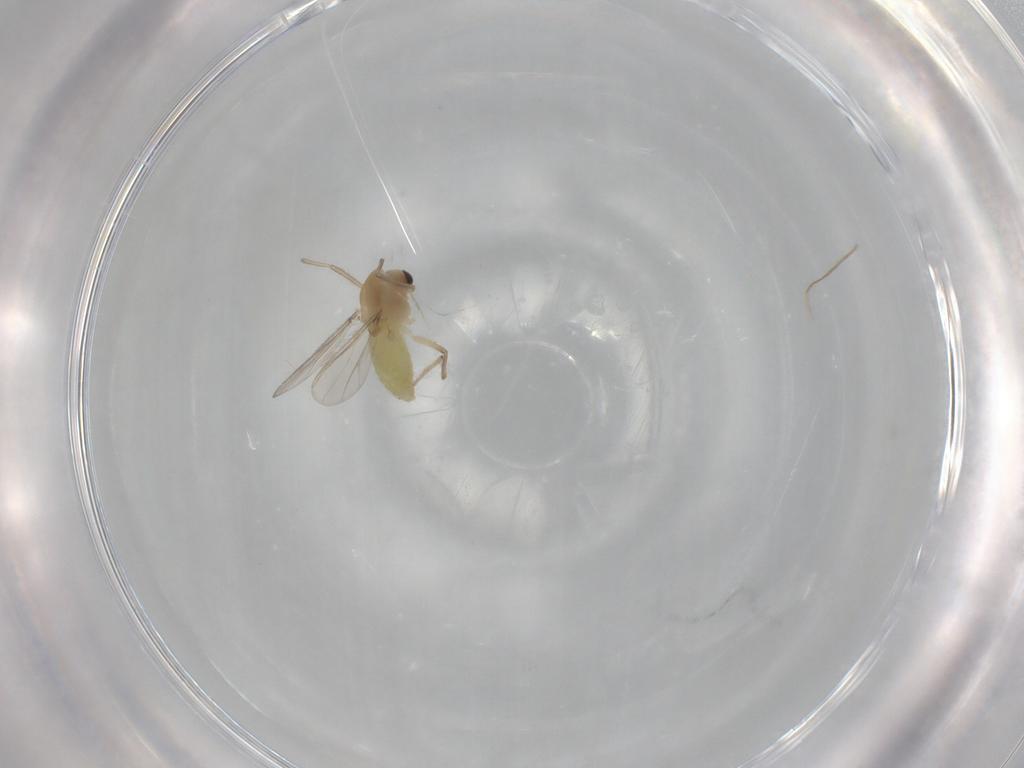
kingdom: Animalia
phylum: Arthropoda
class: Insecta
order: Diptera
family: Chironomidae
